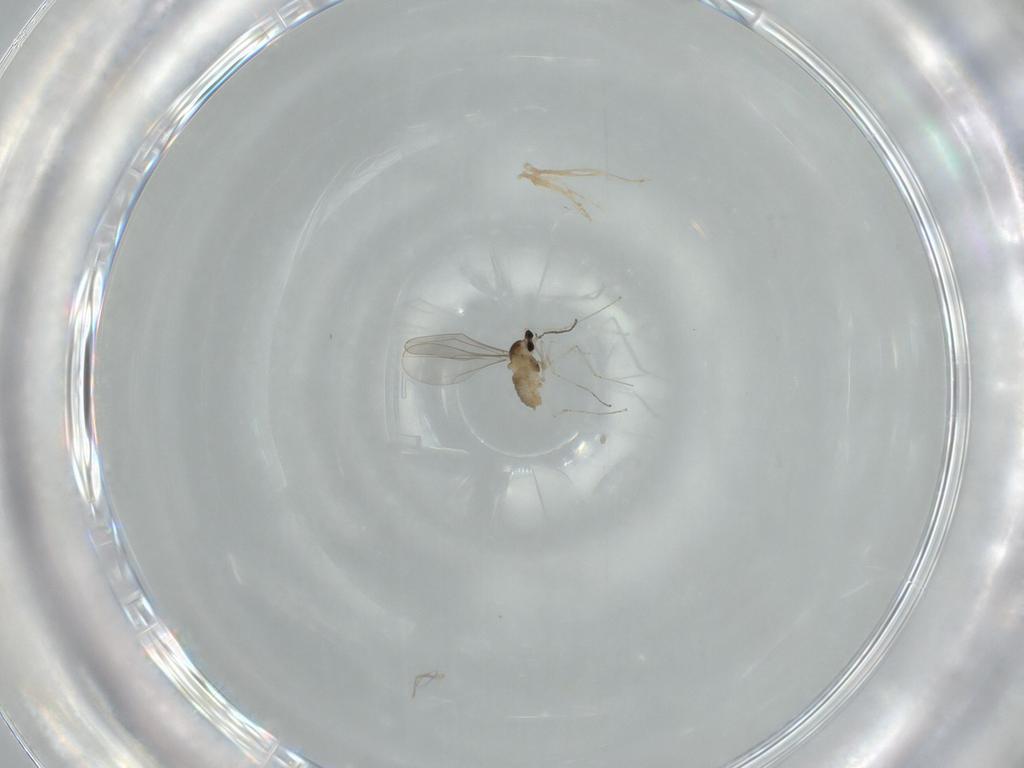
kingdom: Animalia
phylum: Arthropoda
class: Insecta
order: Diptera
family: Cecidomyiidae
